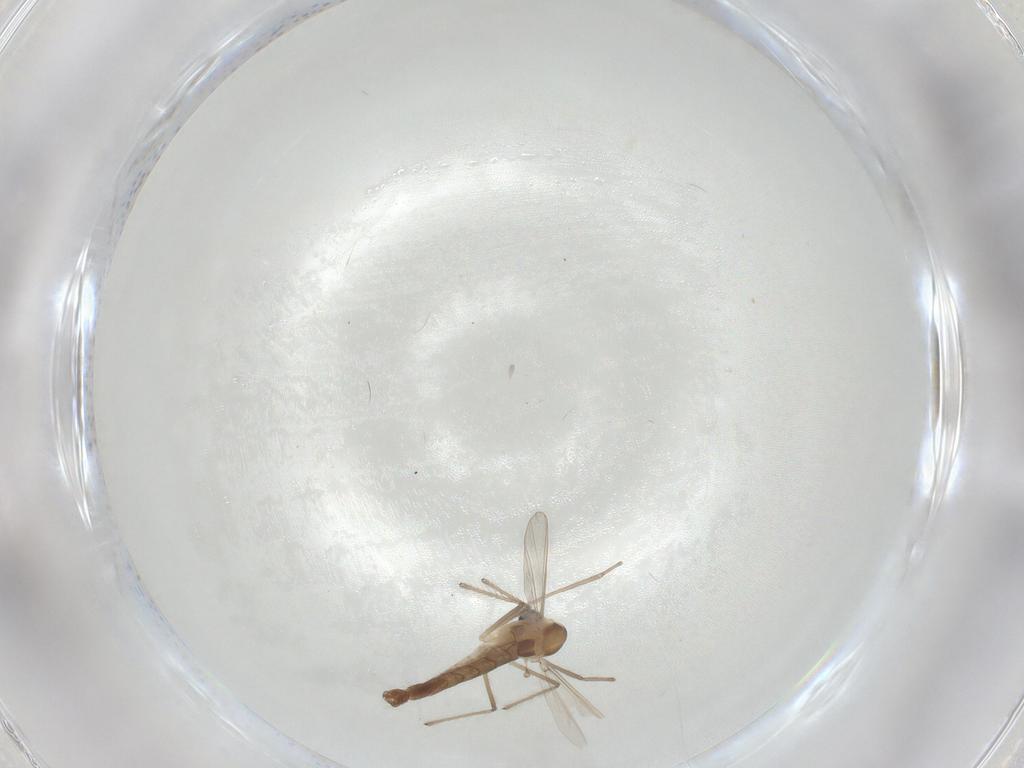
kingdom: Animalia
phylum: Arthropoda
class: Insecta
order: Diptera
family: Chironomidae
